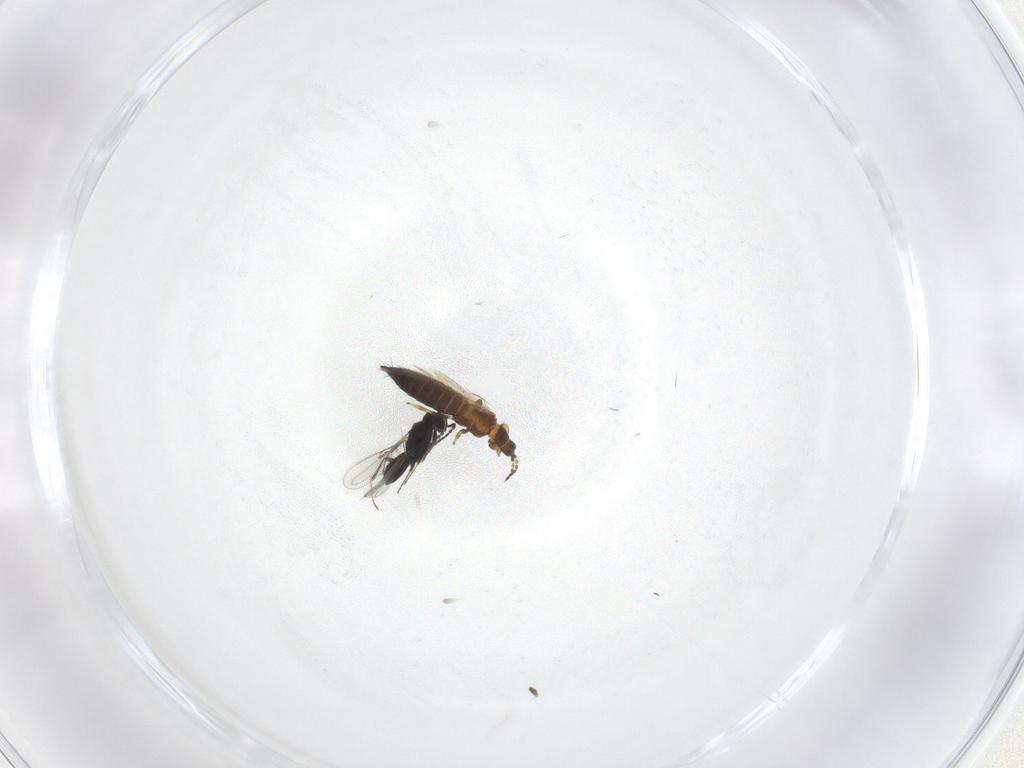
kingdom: Animalia
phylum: Arthropoda
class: Insecta
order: Hymenoptera
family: Scelionidae
